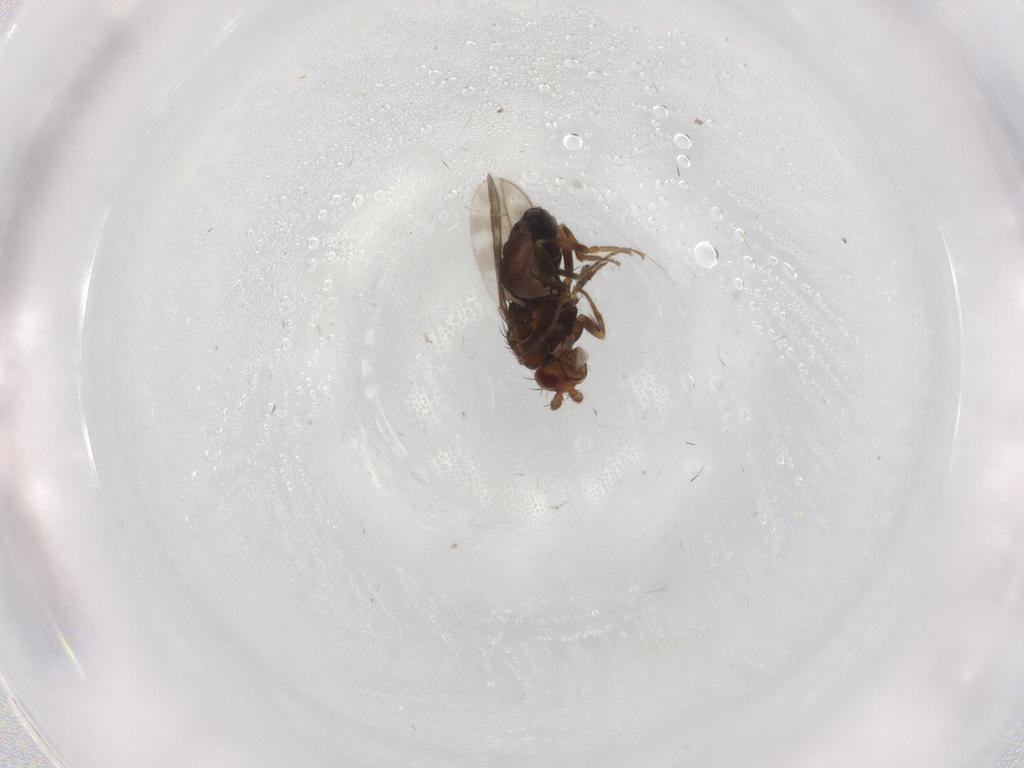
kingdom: Animalia
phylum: Arthropoda
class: Insecta
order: Diptera
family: Sphaeroceridae
